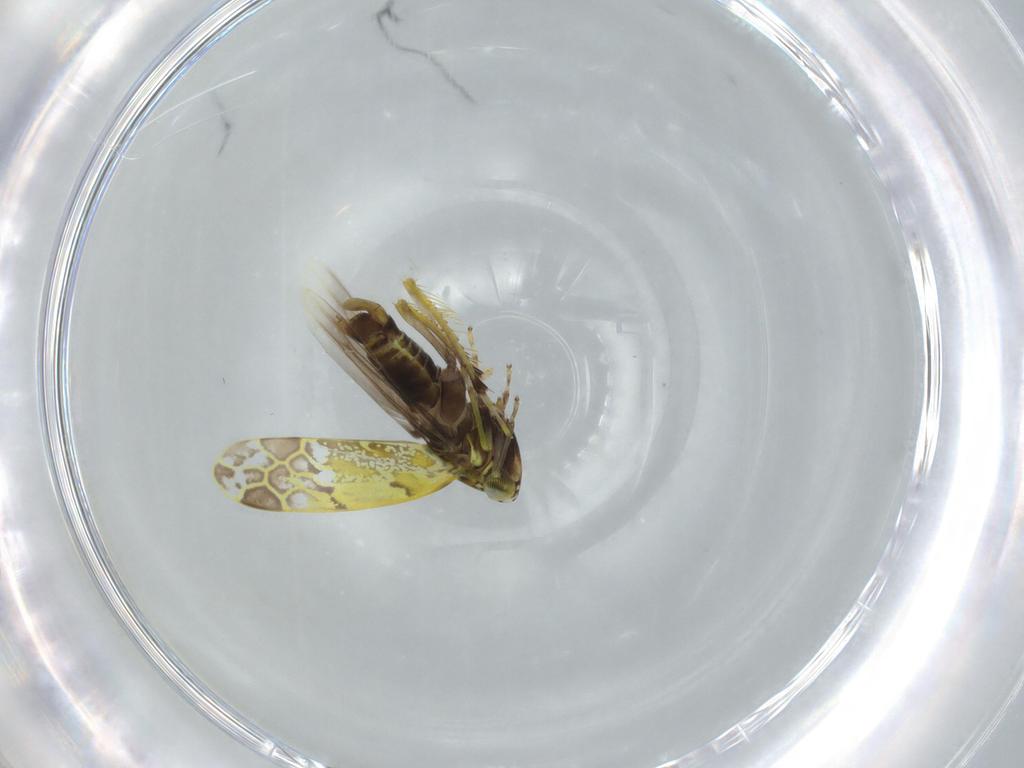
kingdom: Animalia
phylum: Arthropoda
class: Insecta
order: Hemiptera
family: Cicadellidae
